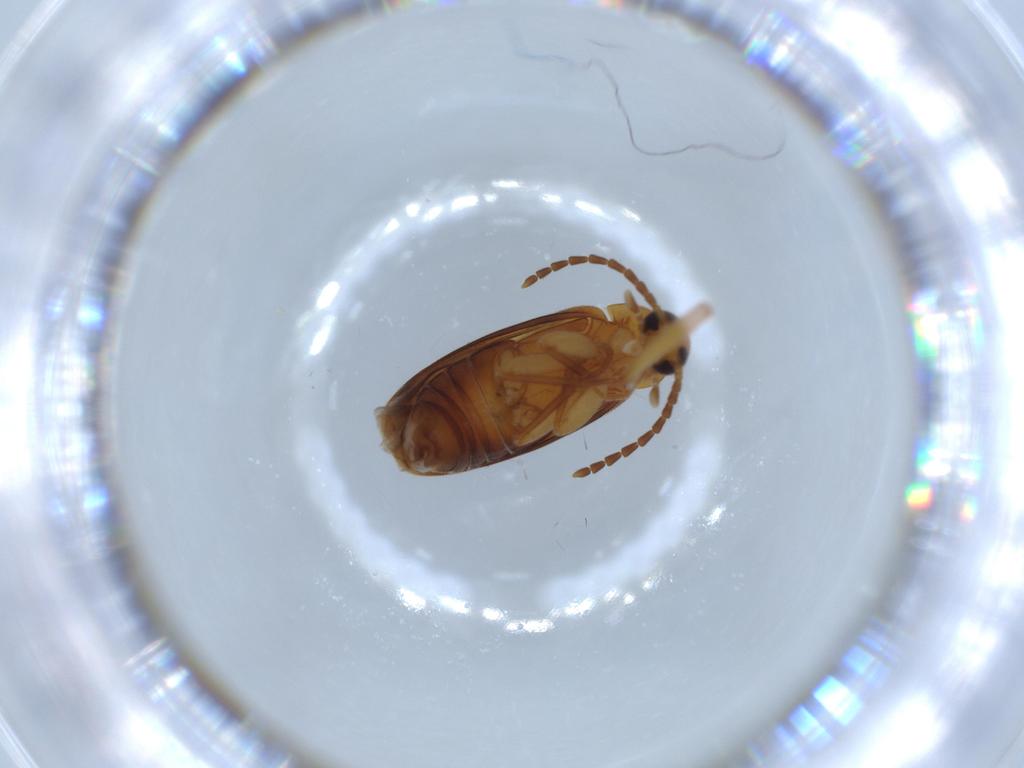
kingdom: Animalia
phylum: Arthropoda
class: Insecta
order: Coleoptera
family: Scraptiidae
